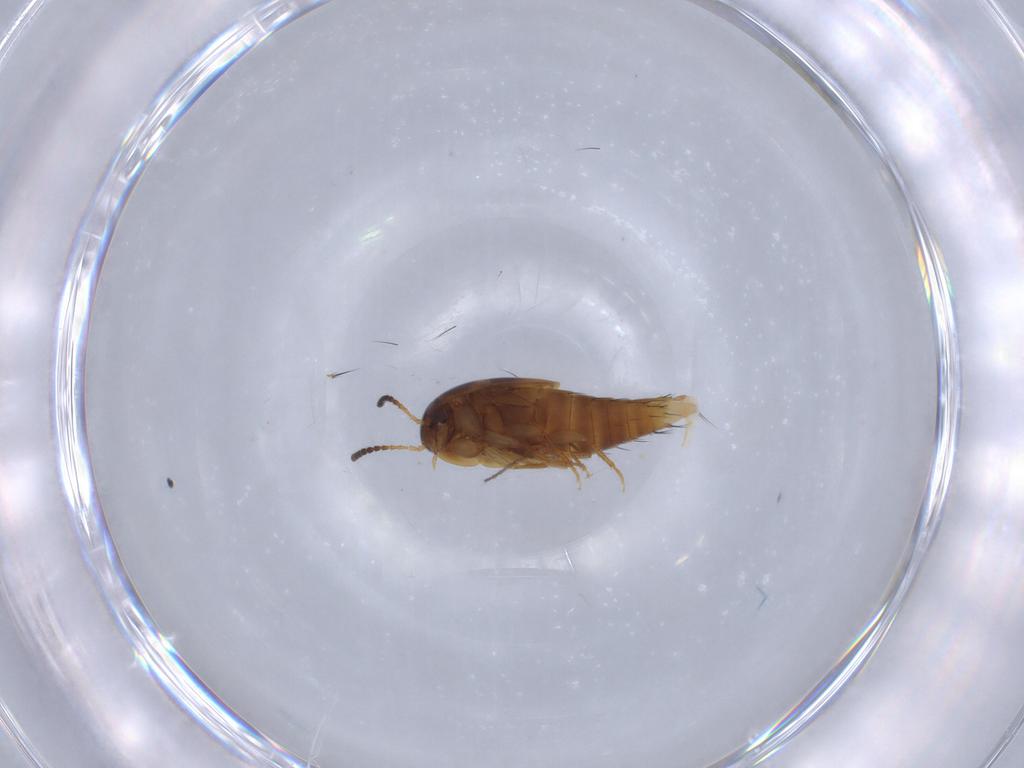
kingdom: Animalia
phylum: Arthropoda
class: Insecta
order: Coleoptera
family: Staphylinidae
